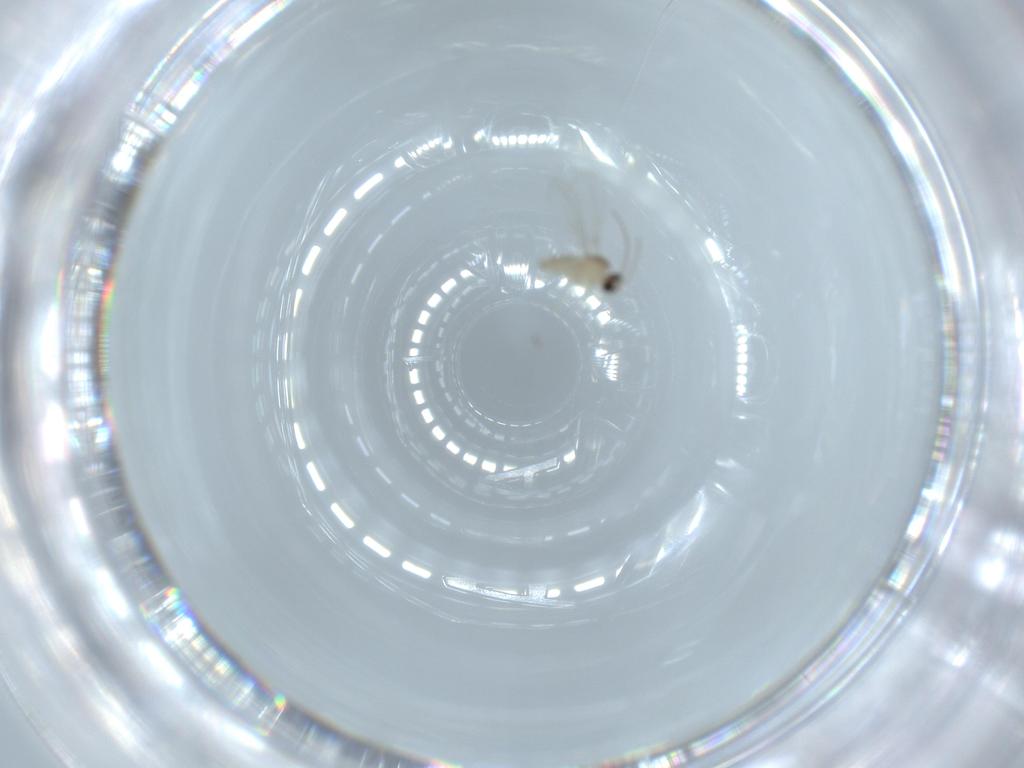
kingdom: Animalia
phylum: Arthropoda
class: Insecta
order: Diptera
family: Cecidomyiidae
